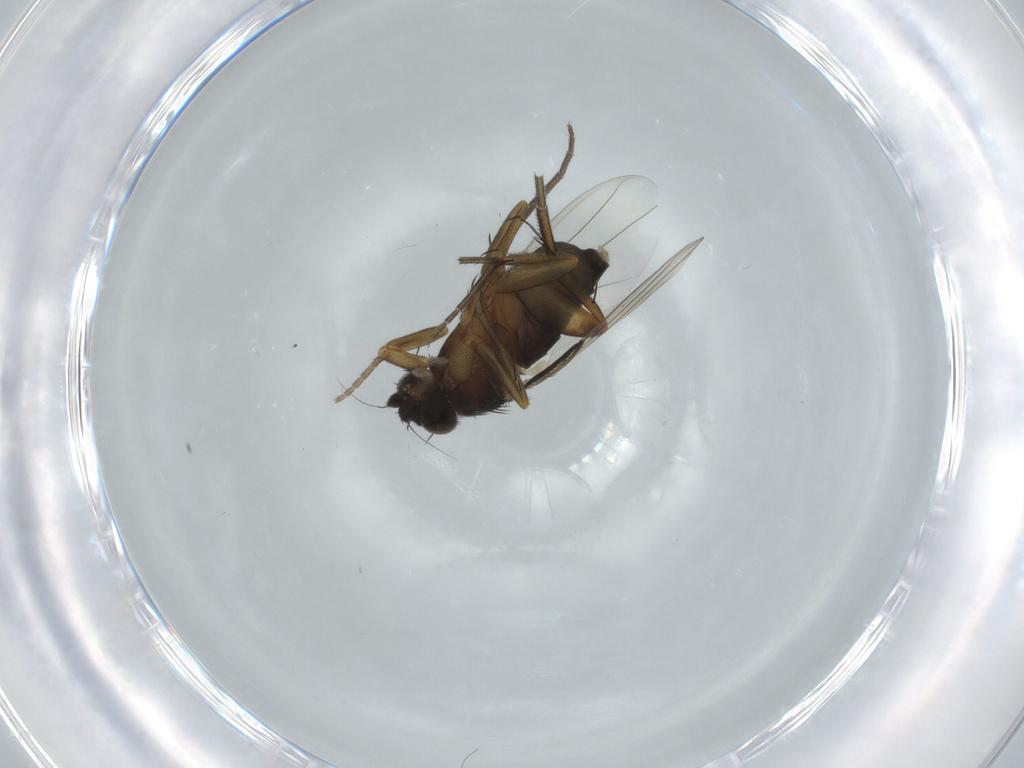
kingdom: Animalia
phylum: Arthropoda
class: Insecta
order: Diptera
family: Phoridae
